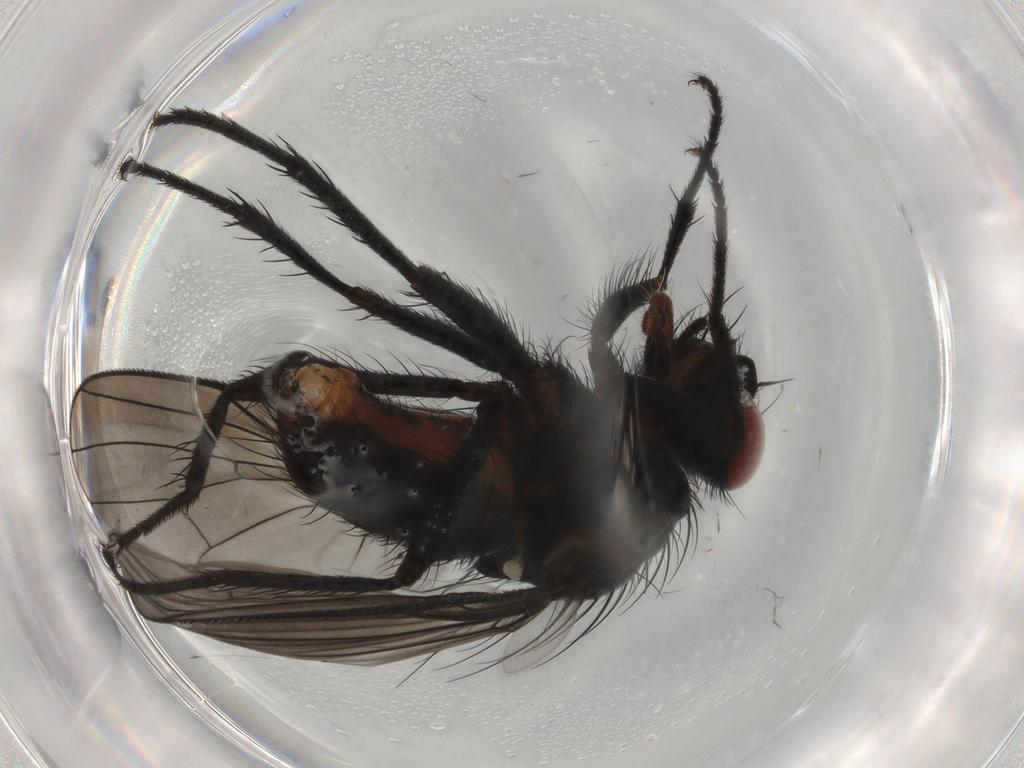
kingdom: Animalia
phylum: Arthropoda
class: Insecta
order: Diptera
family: Anthomyiidae
